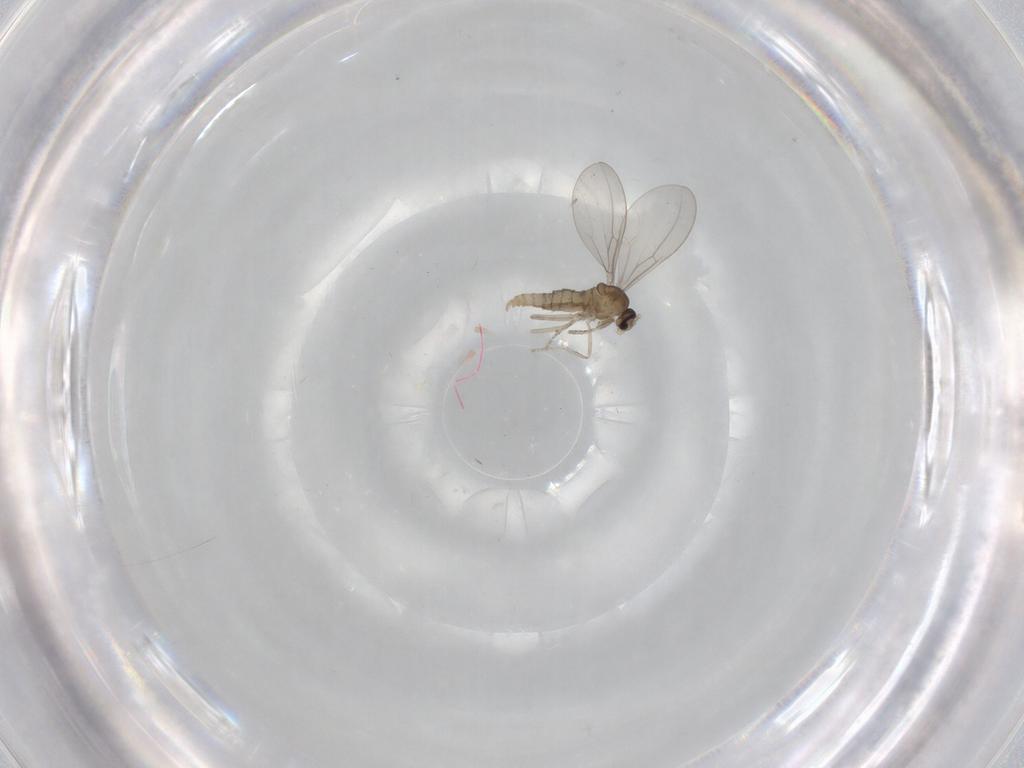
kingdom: Animalia
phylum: Arthropoda
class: Insecta
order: Diptera
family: Cecidomyiidae
